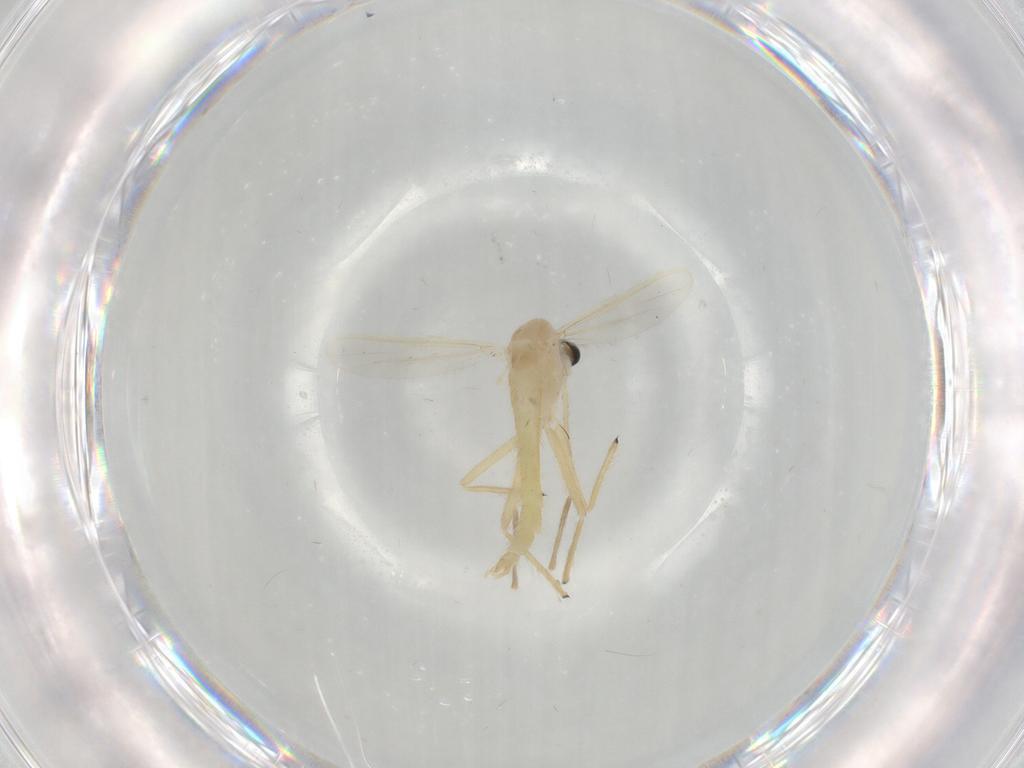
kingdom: Animalia
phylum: Arthropoda
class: Insecta
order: Diptera
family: Chironomidae
